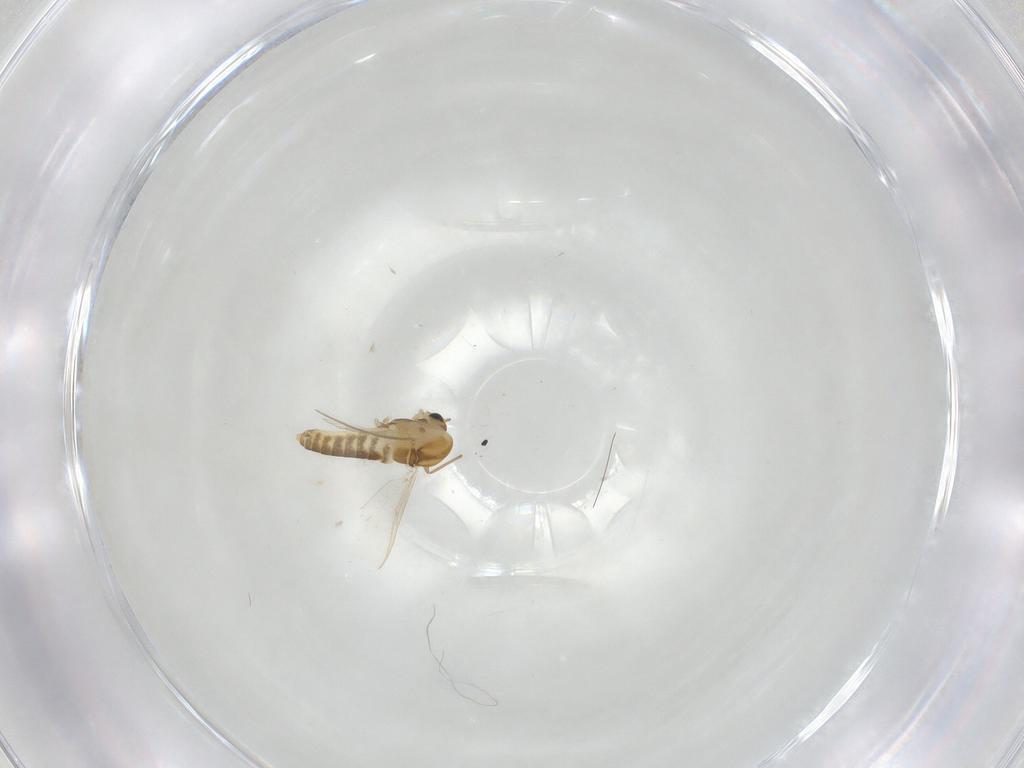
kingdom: Animalia
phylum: Arthropoda
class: Insecta
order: Diptera
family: Chironomidae
